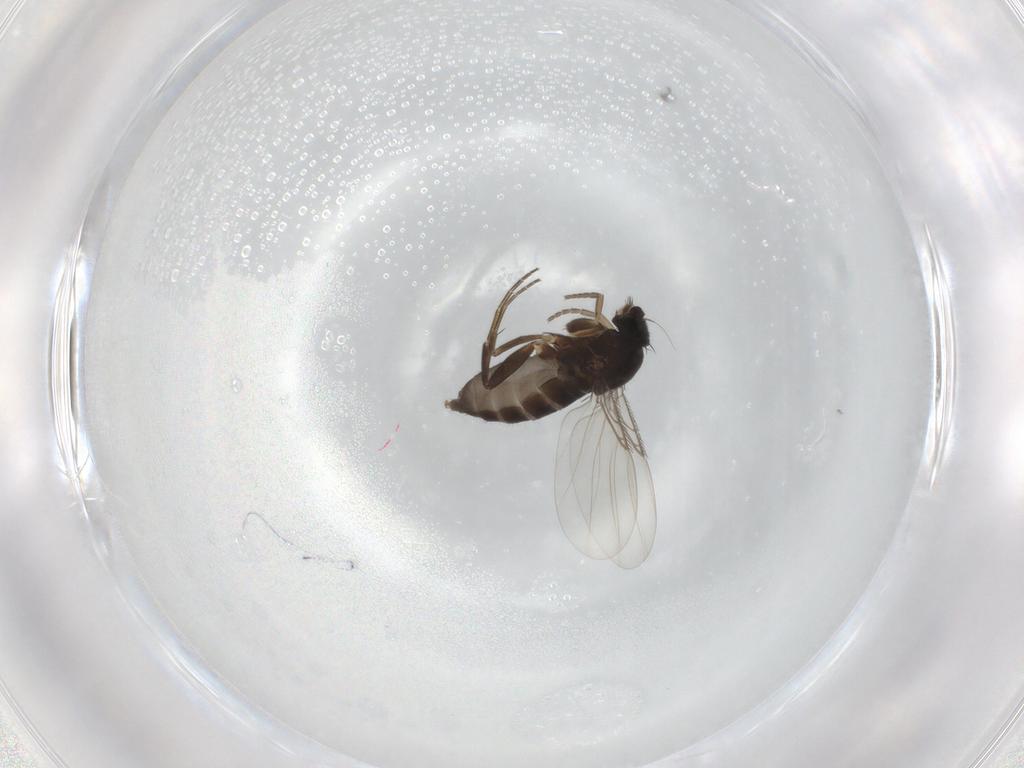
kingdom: Animalia
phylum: Arthropoda
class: Insecta
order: Diptera
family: Phoridae
